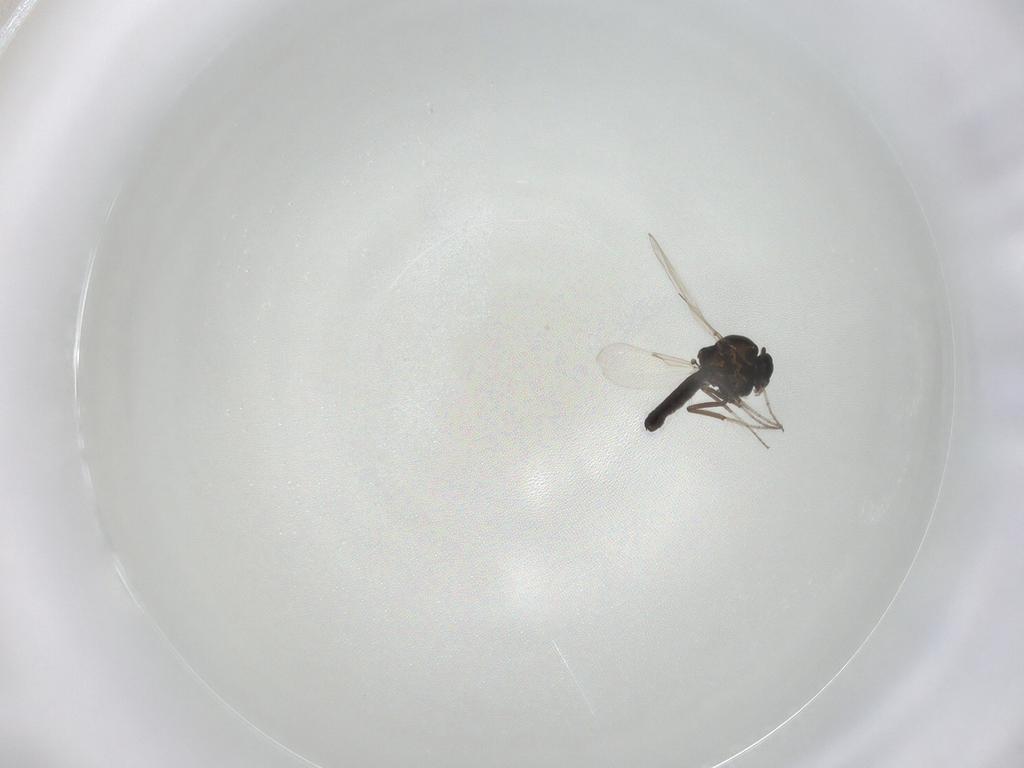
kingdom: Animalia
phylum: Arthropoda
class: Insecta
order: Diptera
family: Ceratopogonidae
